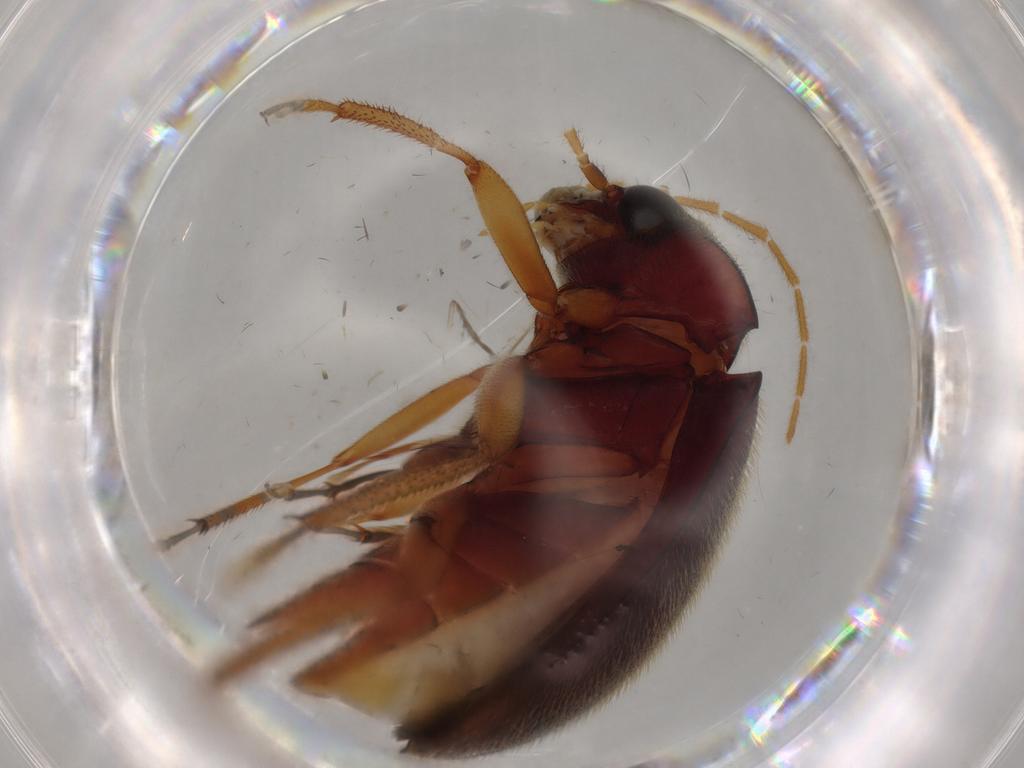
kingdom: Animalia
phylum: Arthropoda
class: Insecta
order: Coleoptera
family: Ptilodactylidae
